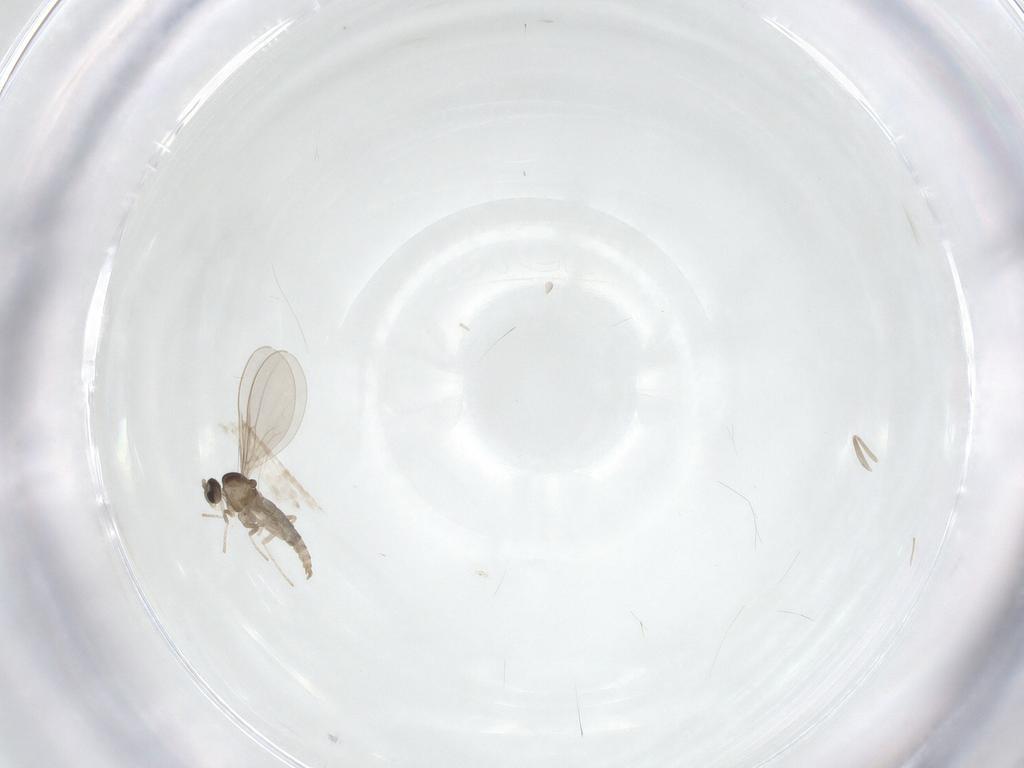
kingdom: Animalia
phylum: Arthropoda
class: Insecta
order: Diptera
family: Cecidomyiidae
